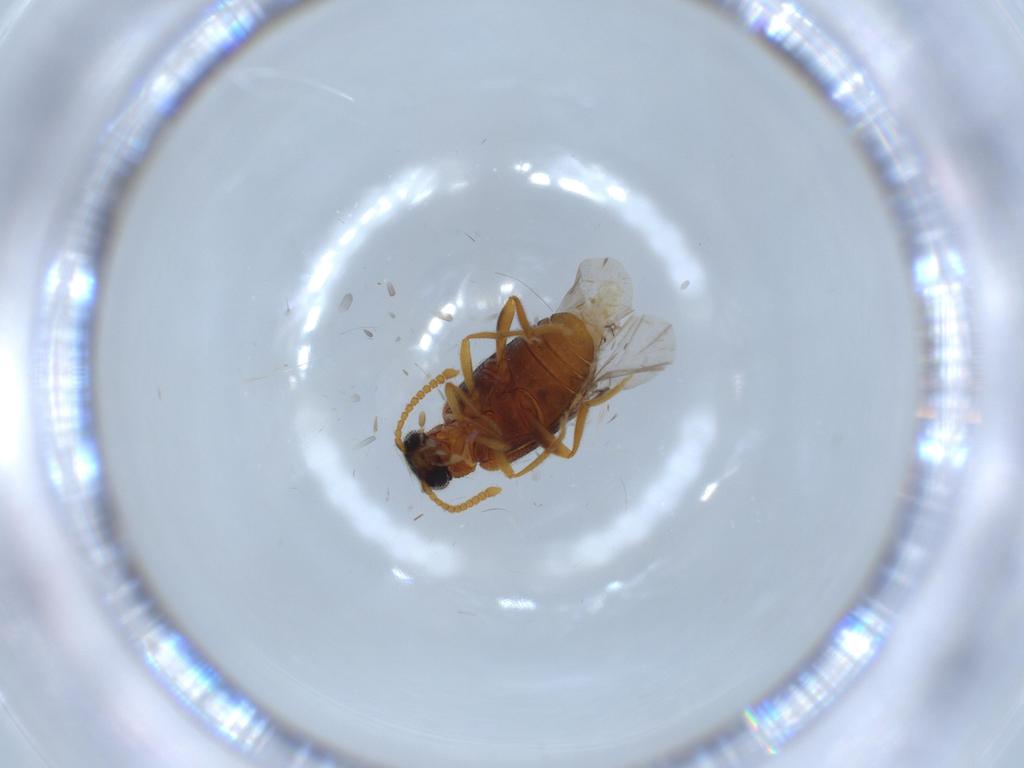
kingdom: Animalia
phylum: Arthropoda
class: Insecta
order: Coleoptera
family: Aderidae
